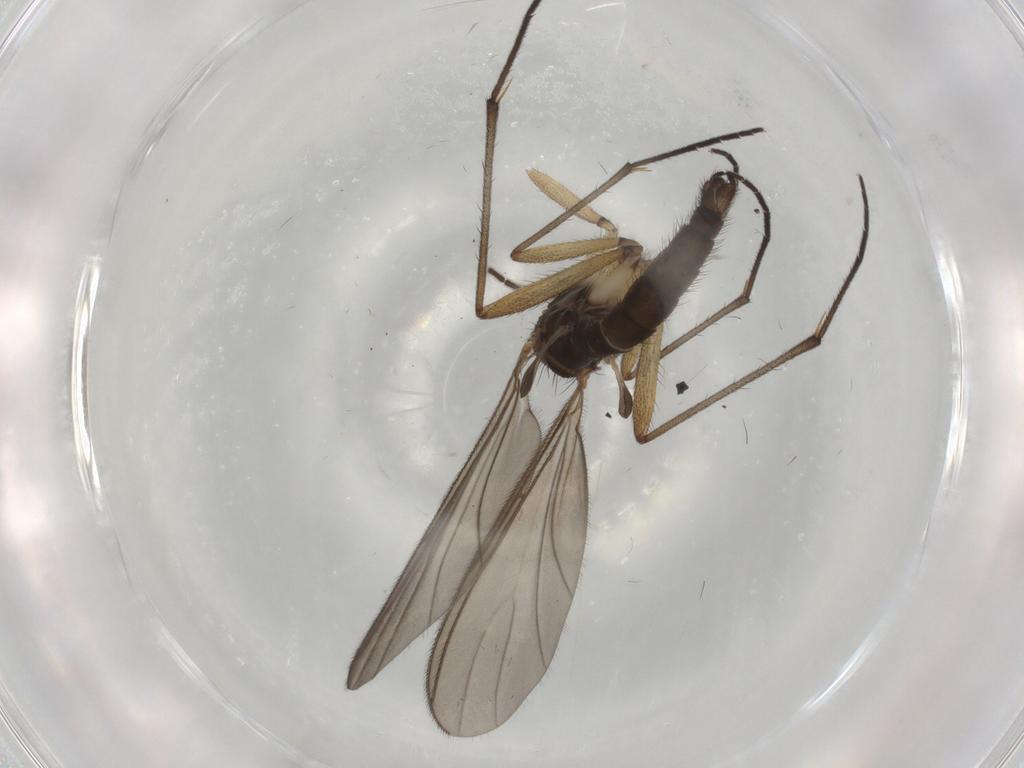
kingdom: Animalia
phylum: Arthropoda
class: Insecta
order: Diptera
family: Sciaridae
